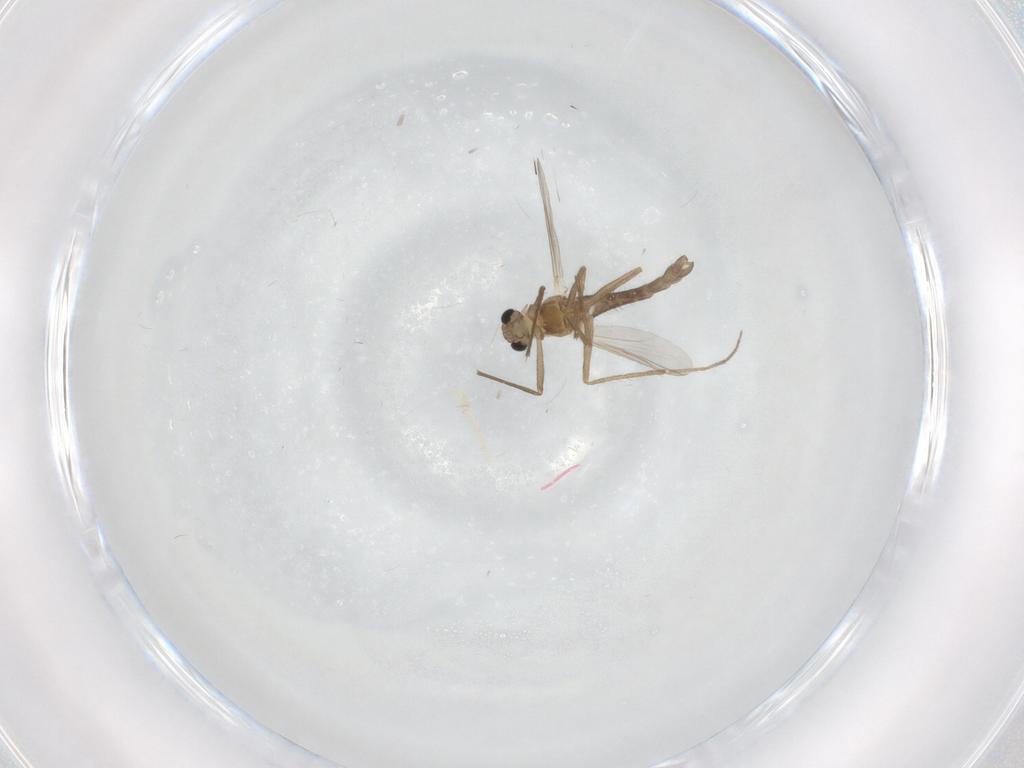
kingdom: Animalia
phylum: Arthropoda
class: Insecta
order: Diptera
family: Chironomidae
